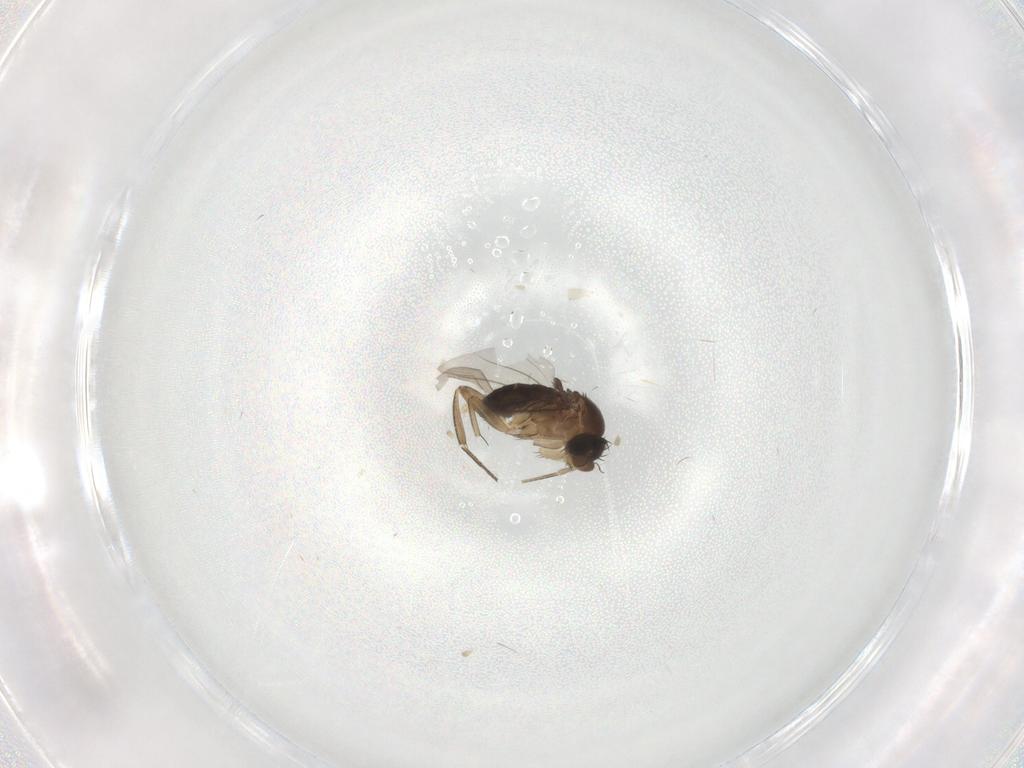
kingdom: Animalia
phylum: Arthropoda
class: Insecta
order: Diptera
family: Phoridae
